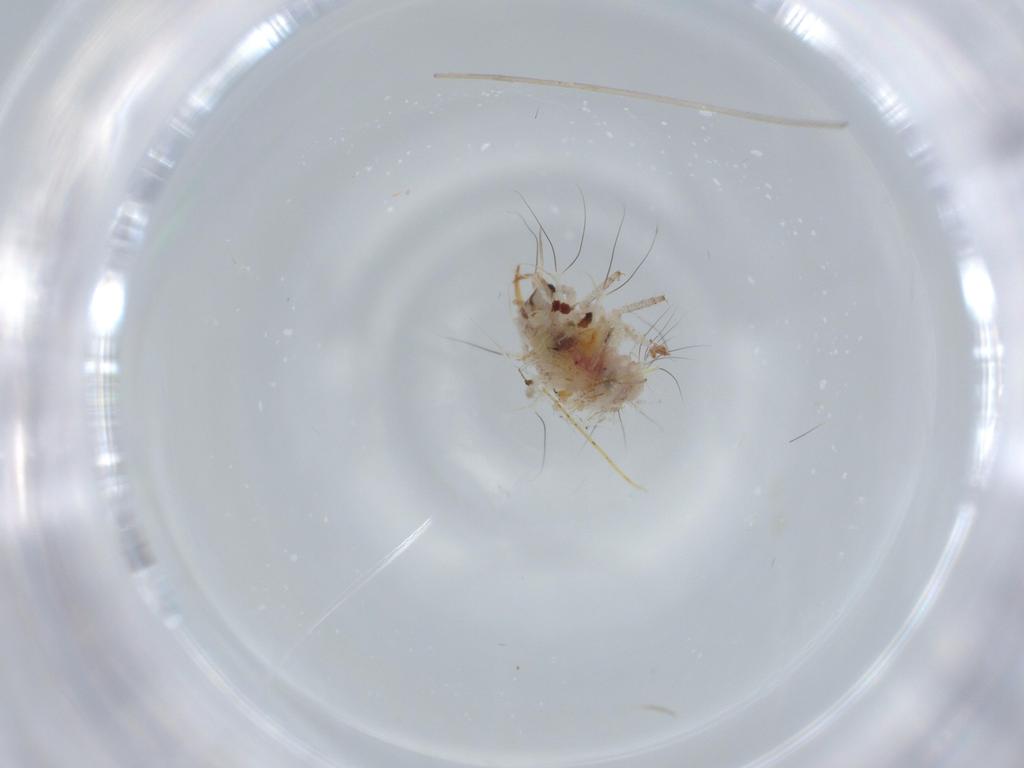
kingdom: Animalia
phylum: Arthropoda
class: Insecta
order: Neuroptera
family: Chrysopidae
